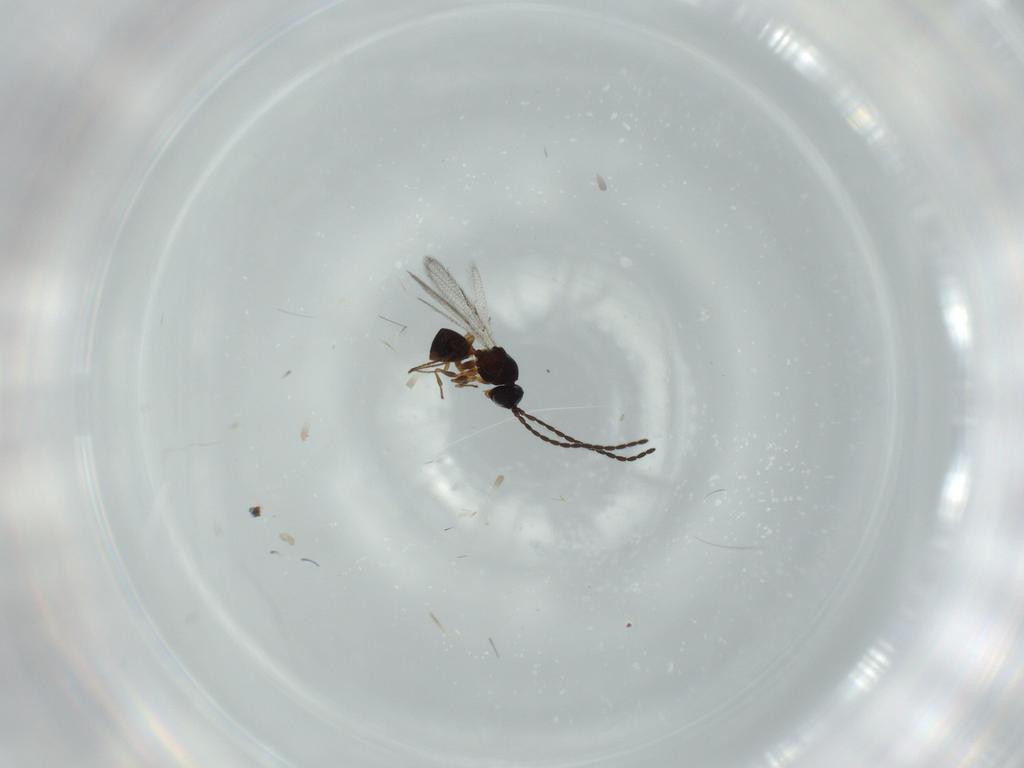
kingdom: Animalia
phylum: Arthropoda
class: Insecta
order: Hymenoptera
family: Figitidae
